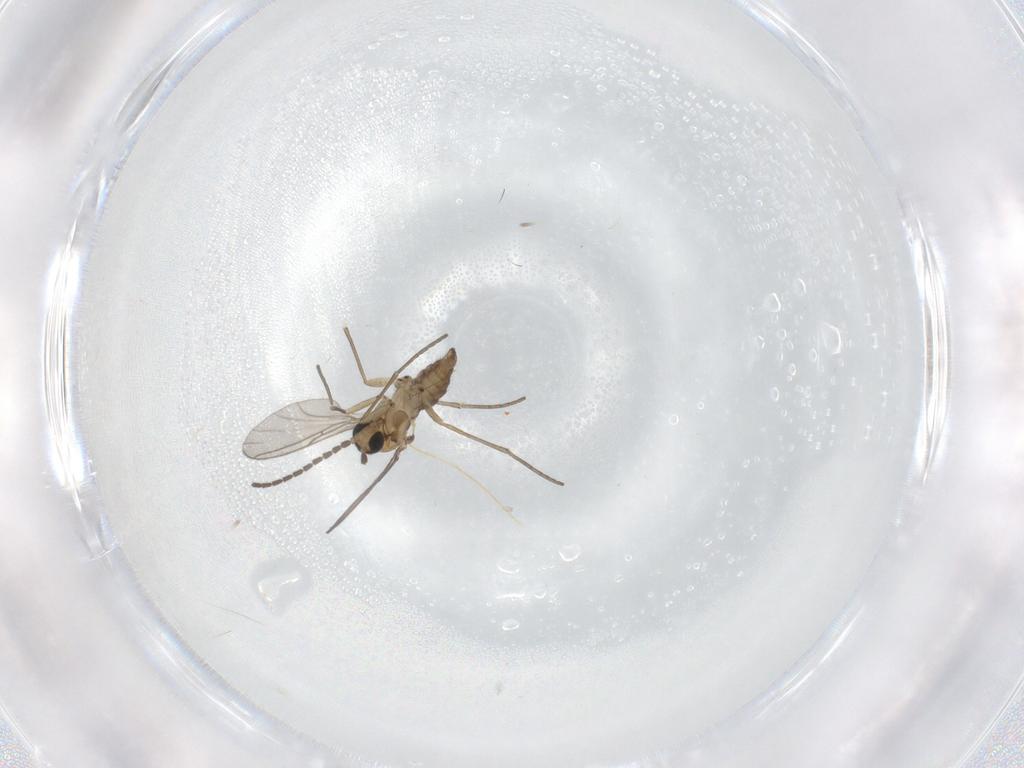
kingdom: Animalia
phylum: Arthropoda
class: Insecta
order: Diptera
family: Sciaridae
